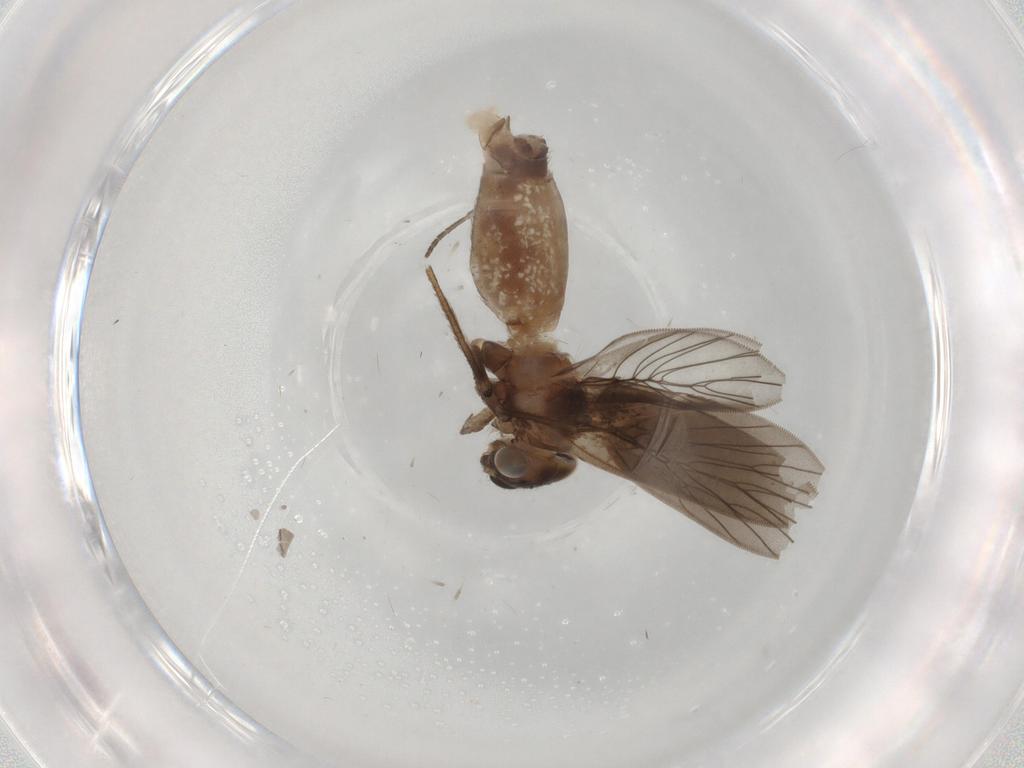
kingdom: Animalia
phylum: Arthropoda
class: Insecta
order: Psocodea
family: Lepidopsocidae
